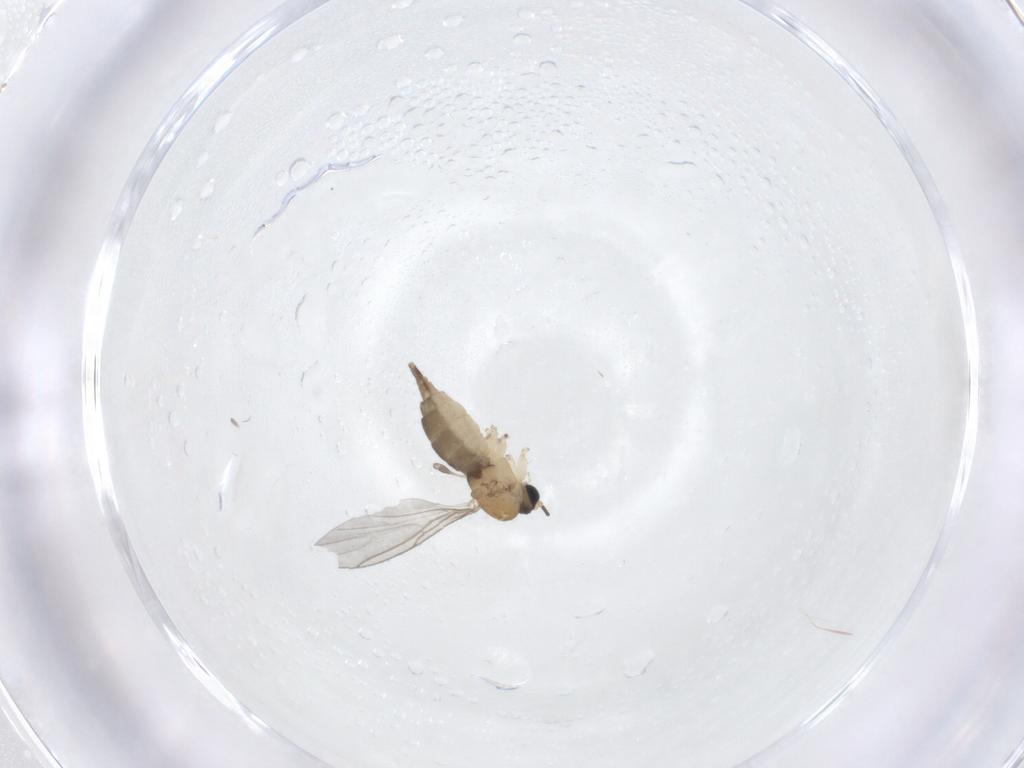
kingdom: Animalia
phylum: Arthropoda
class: Insecta
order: Diptera
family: Sciaridae
